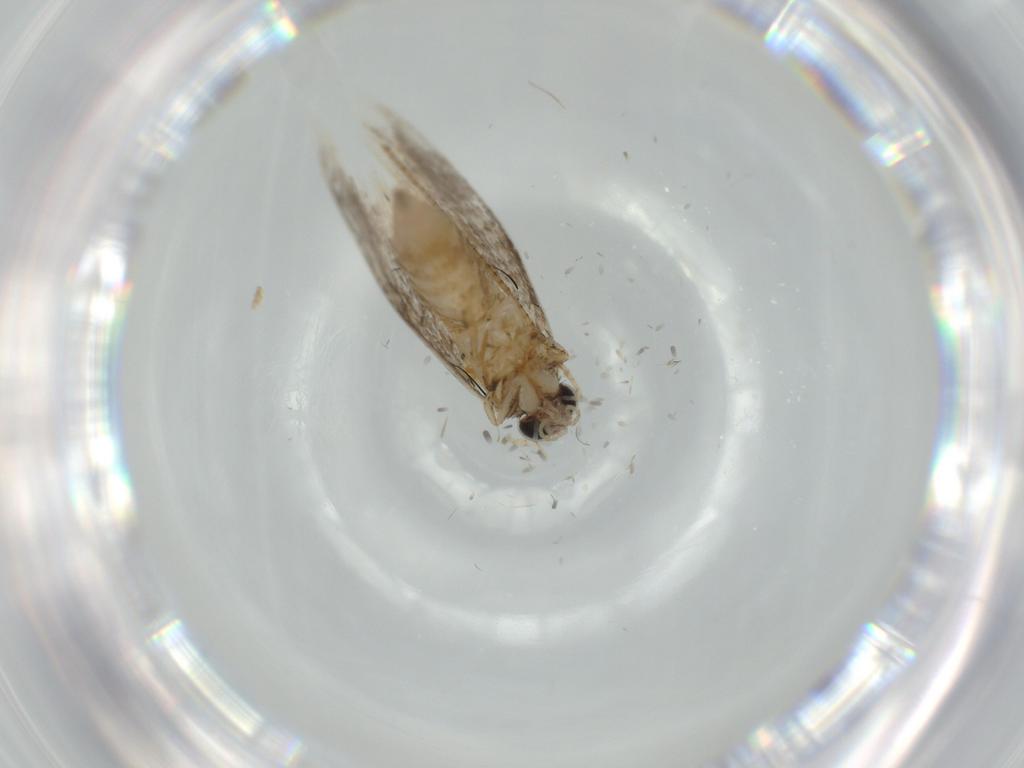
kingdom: Animalia
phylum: Arthropoda
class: Insecta
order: Lepidoptera
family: Tineidae
